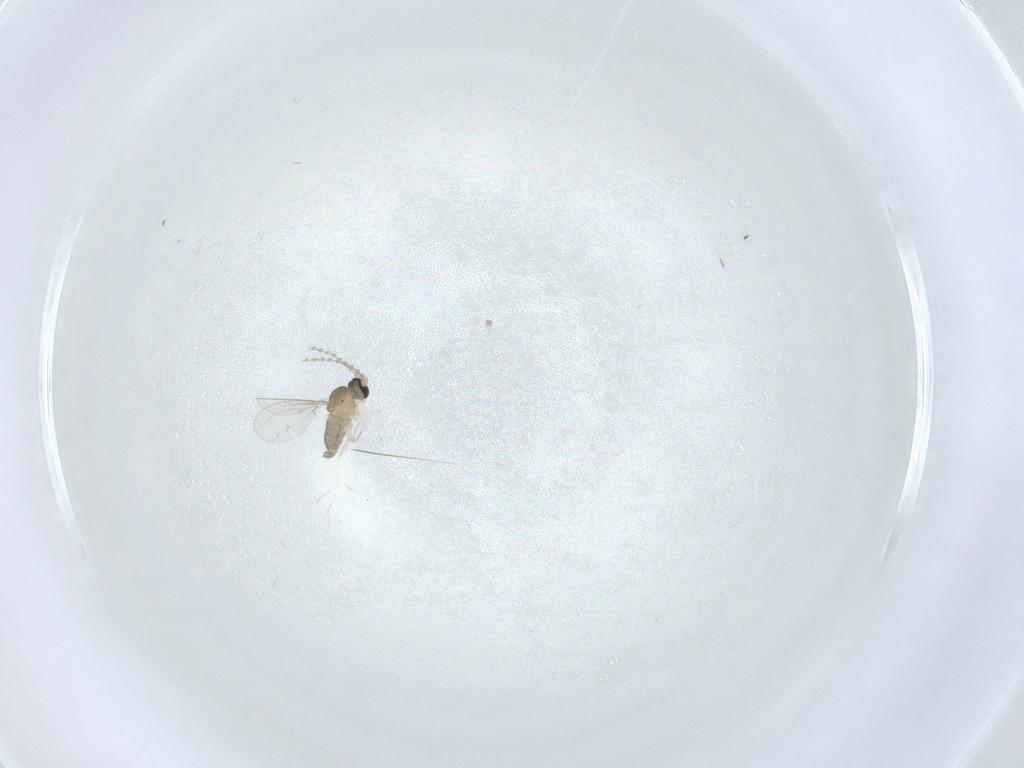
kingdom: Animalia
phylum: Arthropoda
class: Insecta
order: Diptera
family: Cecidomyiidae
